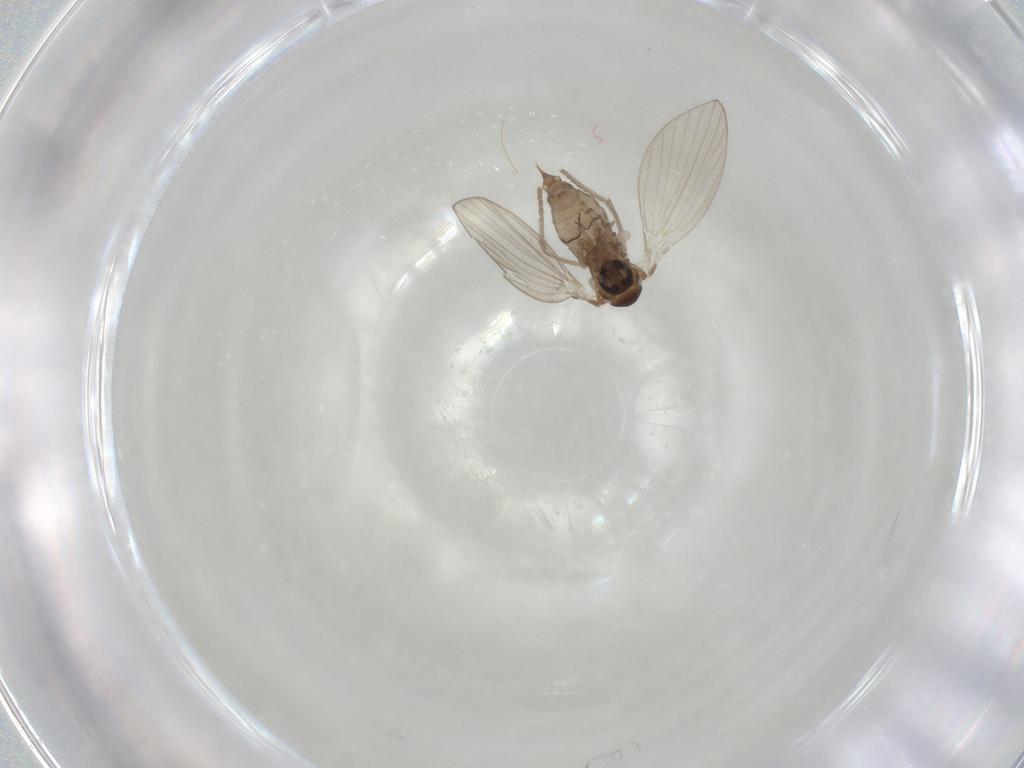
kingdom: Animalia
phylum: Arthropoda
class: Insecta
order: Diptera
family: Psychodidae
